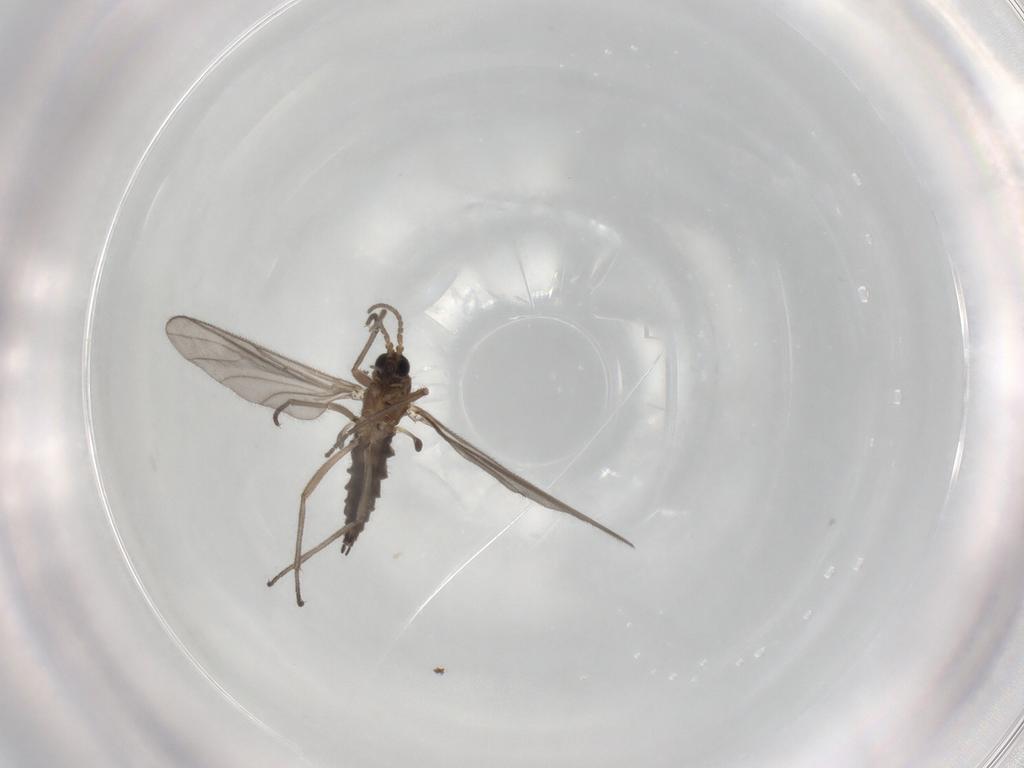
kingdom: Animalia
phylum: Arthropoda
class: Insecta
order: Diptera
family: Sciaridae
